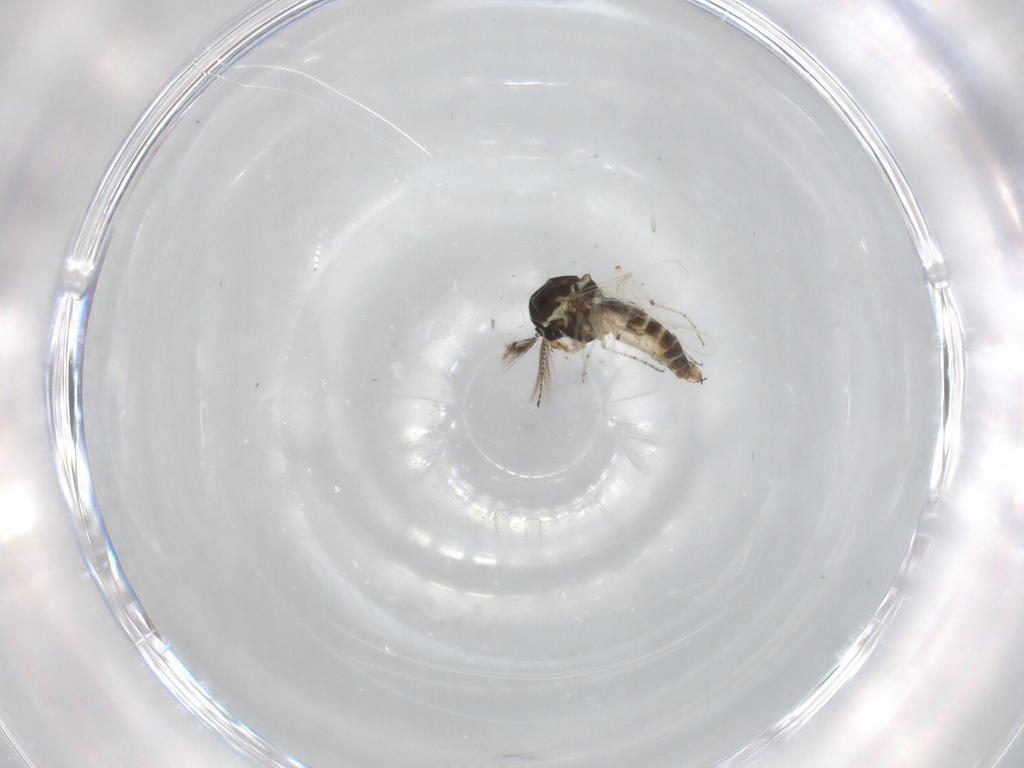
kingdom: Animalia
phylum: Arthropoda
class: Insecta
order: Diptera
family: Ceratopogonidae
